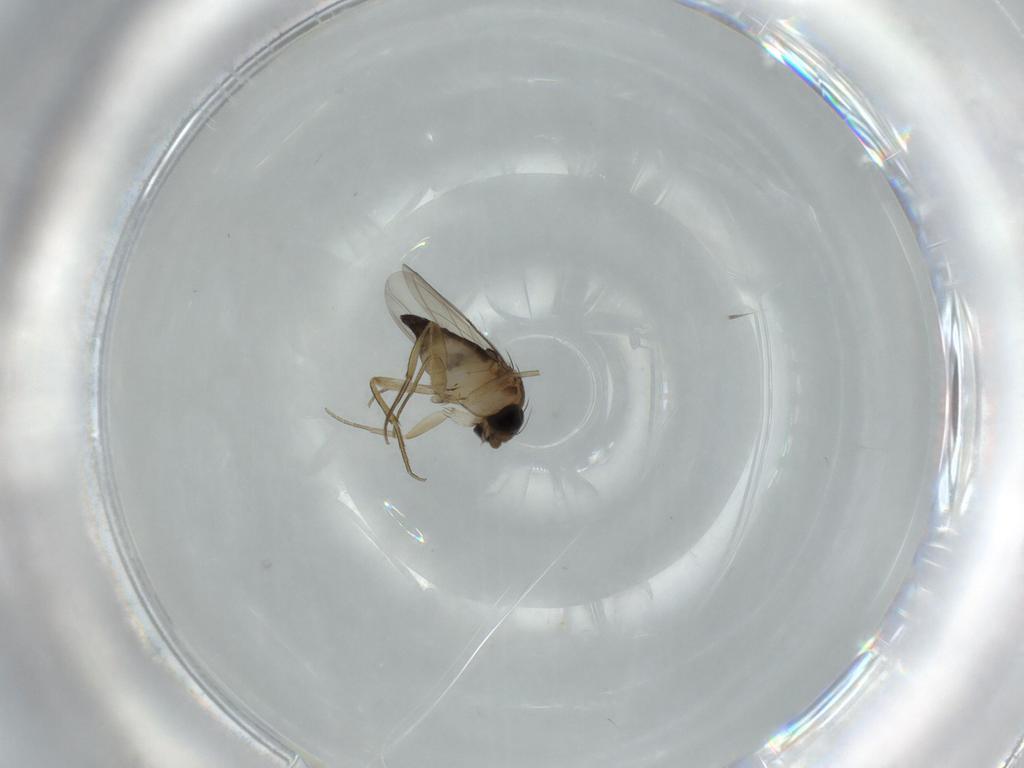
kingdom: Animalia
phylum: Arthropoda
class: Insecta
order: Diptera
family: Phoridae
